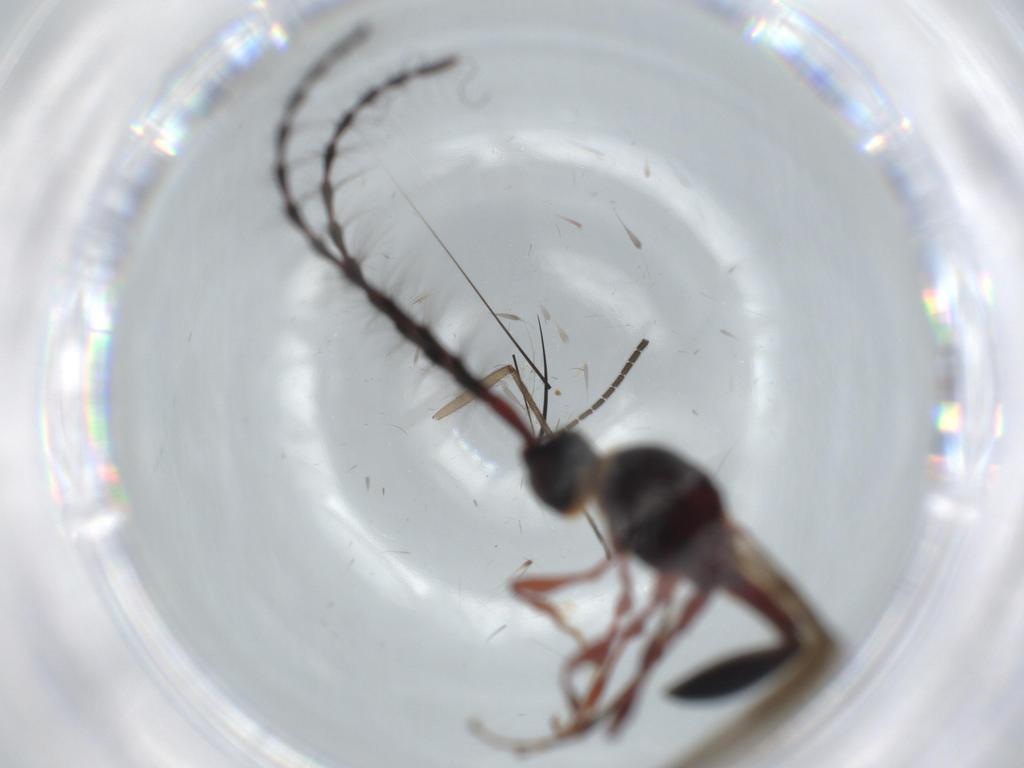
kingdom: Animalia
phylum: Arthropoda
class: Insecta
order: Hymenoptera
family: Diapriidae
